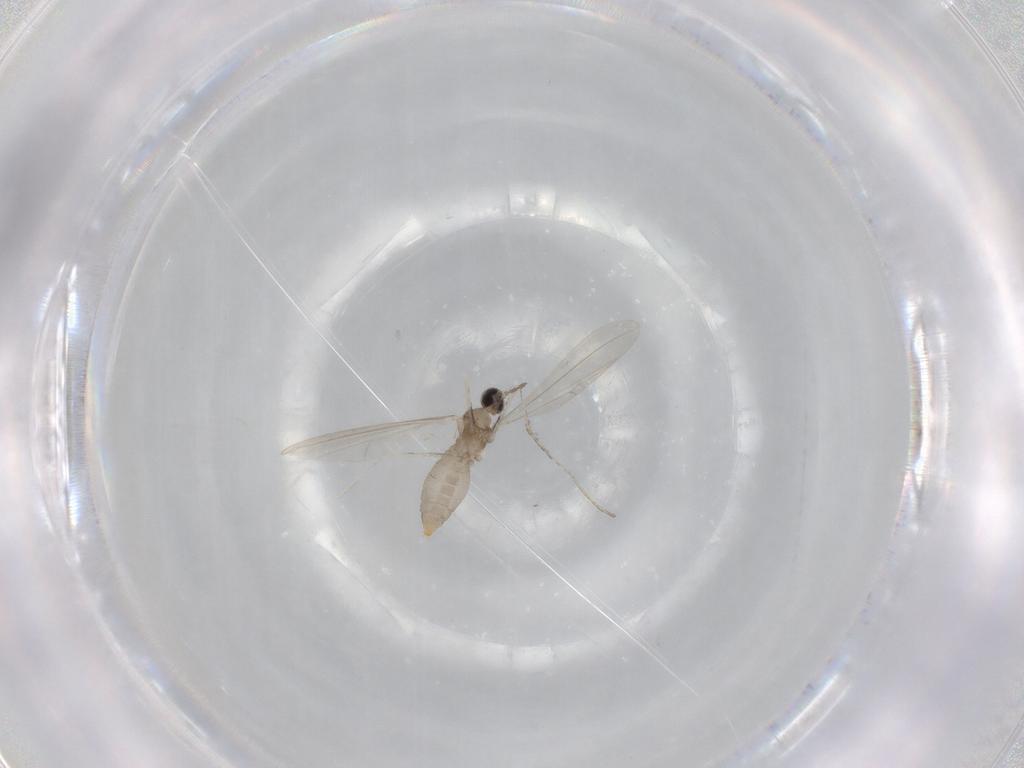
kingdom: Animalia
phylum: Arthropoda
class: Insecta
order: Diptera
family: Cecidomyiidae
